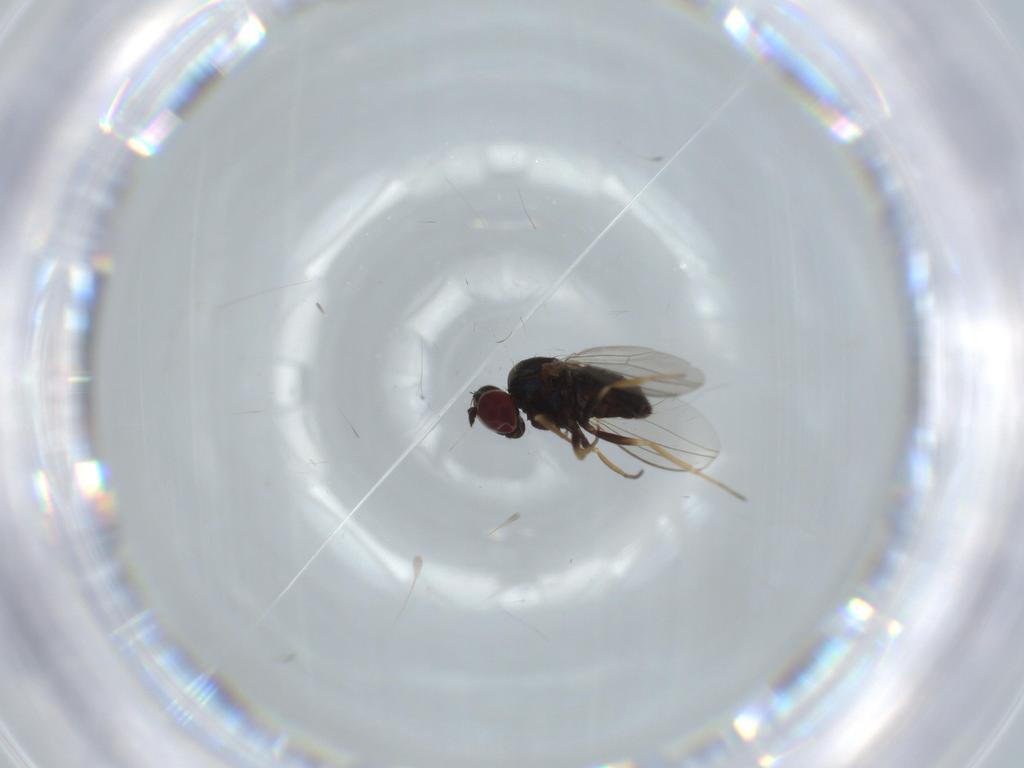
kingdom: Animalia
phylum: Arthropoda
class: Insecta
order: Diptera
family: Dolichopodidae
